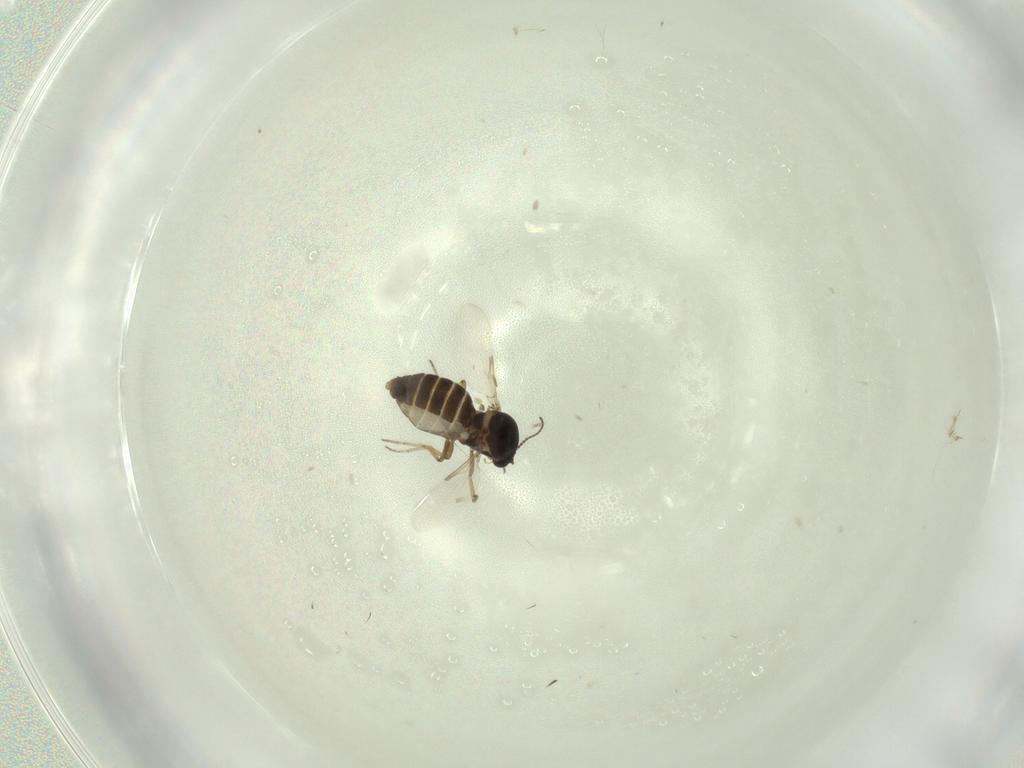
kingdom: Animalia
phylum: Arthropoda
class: Insecta
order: Diptera
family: Ceratopogonidae
